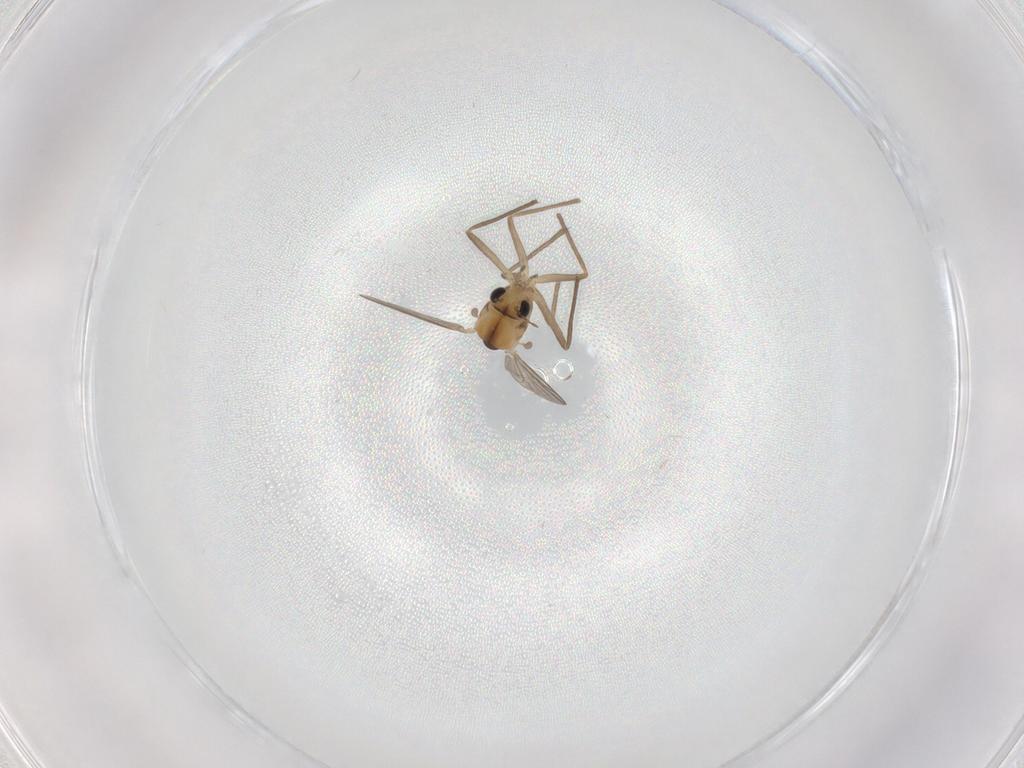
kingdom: Animalia
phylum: Arthropoda
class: Insecta
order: Diptera
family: Chironomidae
